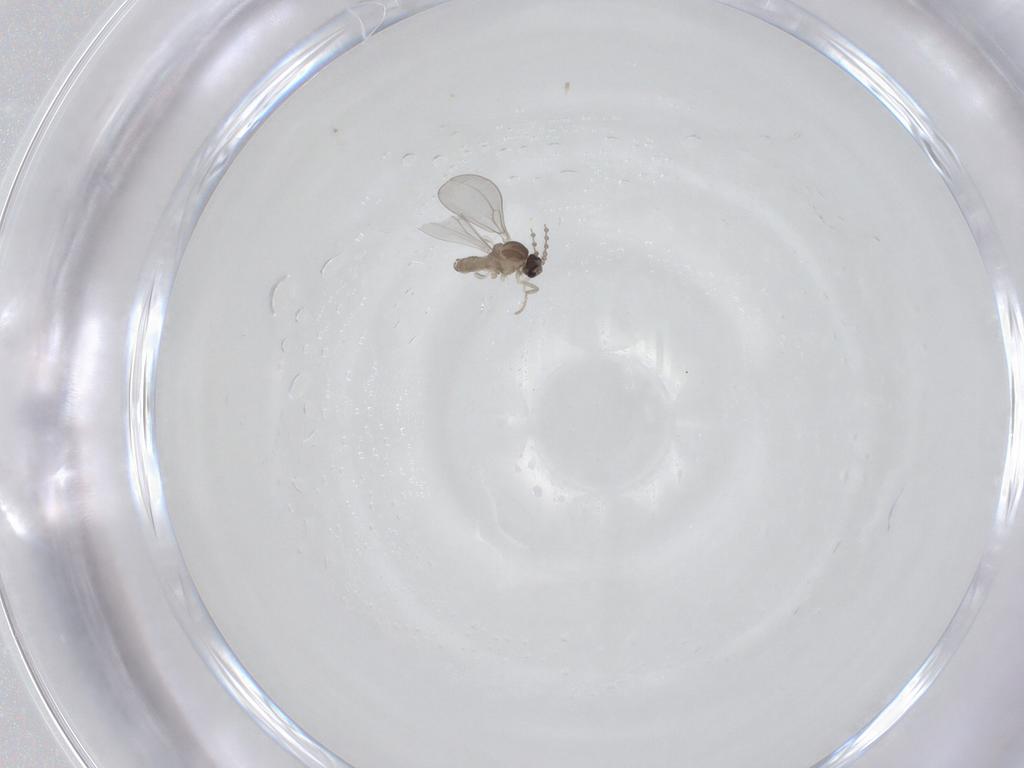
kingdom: Animalia
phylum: Arthropoda
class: Insecta
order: Diptera
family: Cecidomyiidae
